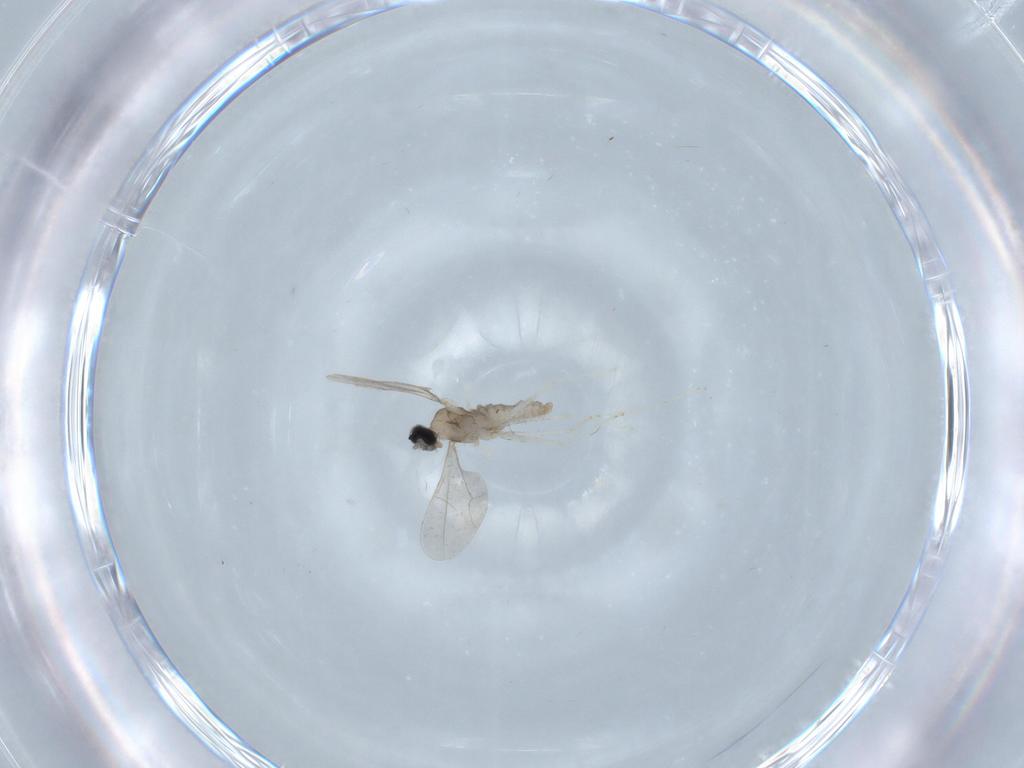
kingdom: Animalia
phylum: Arthropoda
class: Insecta
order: Diptera
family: Cecidomyiidae
